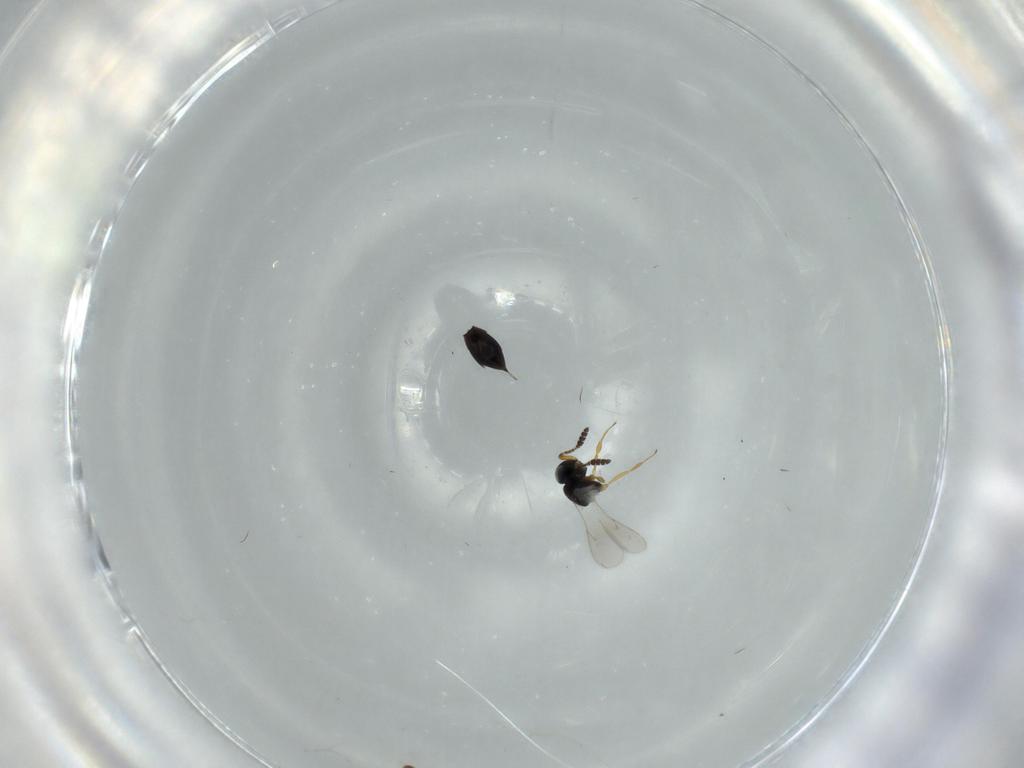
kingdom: Animalia
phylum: Arthropoda
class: Insecta
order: Hymenoptera
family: Scelionidae
